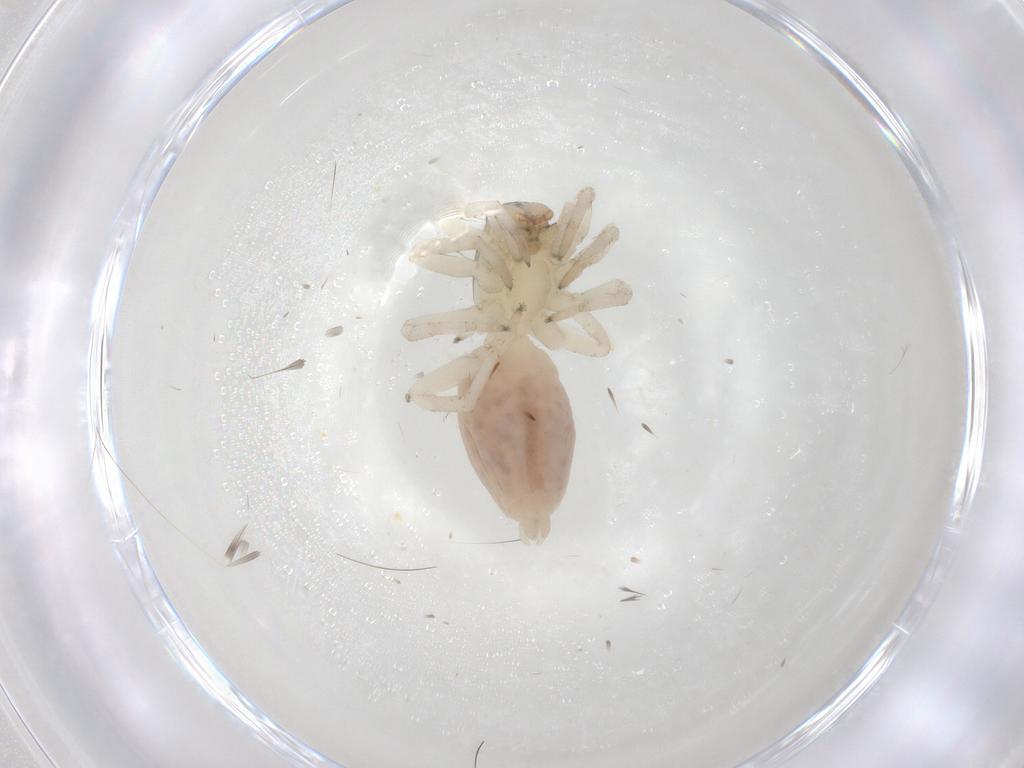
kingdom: Animalia
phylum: Arthropoda
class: Arachnida
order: Araneae
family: Clubionidae
